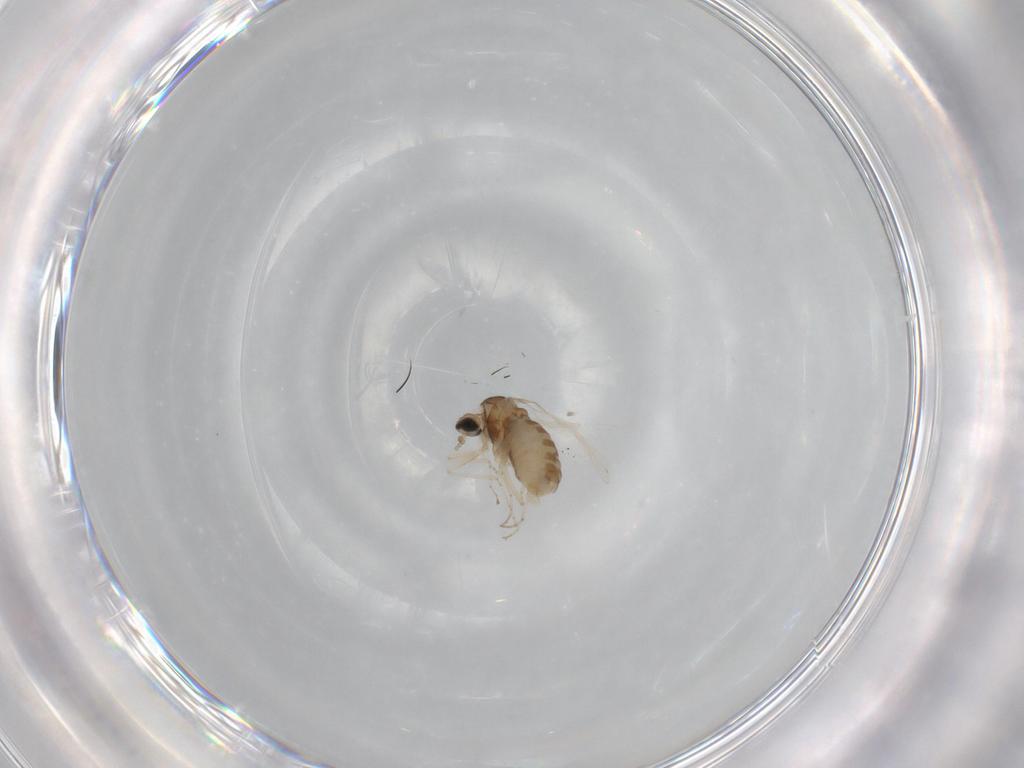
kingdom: Animalia
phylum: Arthropoda
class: Insecta
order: Diptera
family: Cecidomyiidae
